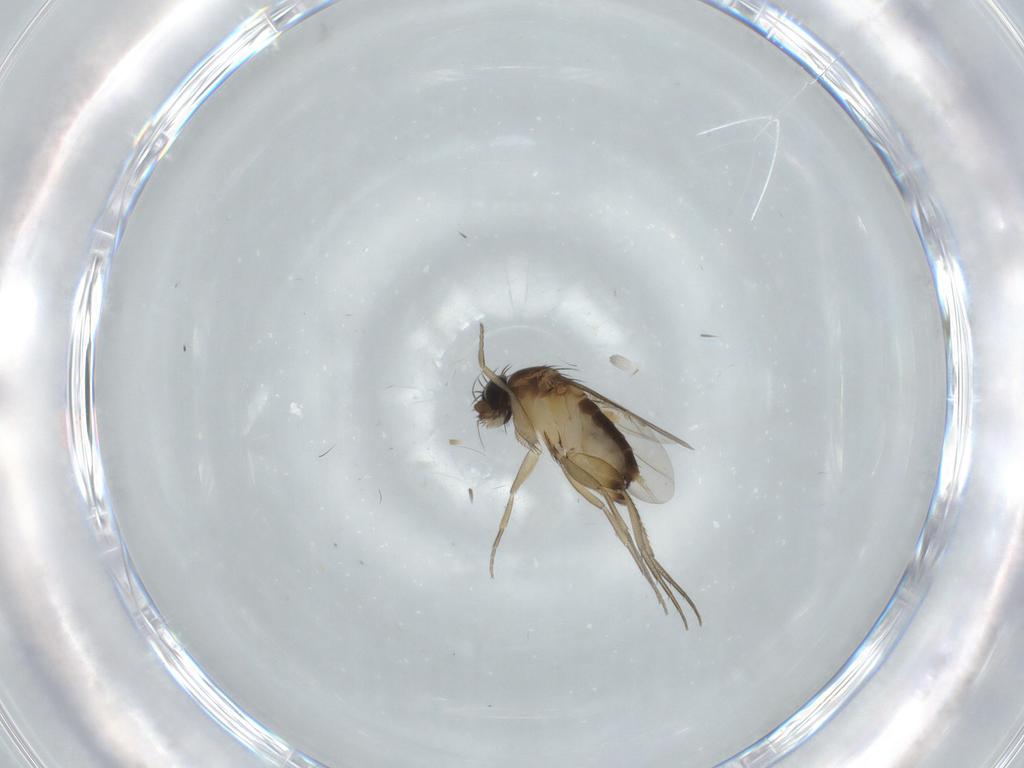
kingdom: Animalia
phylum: Arthropoda
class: Insecta
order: Diptera
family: Phoridae
